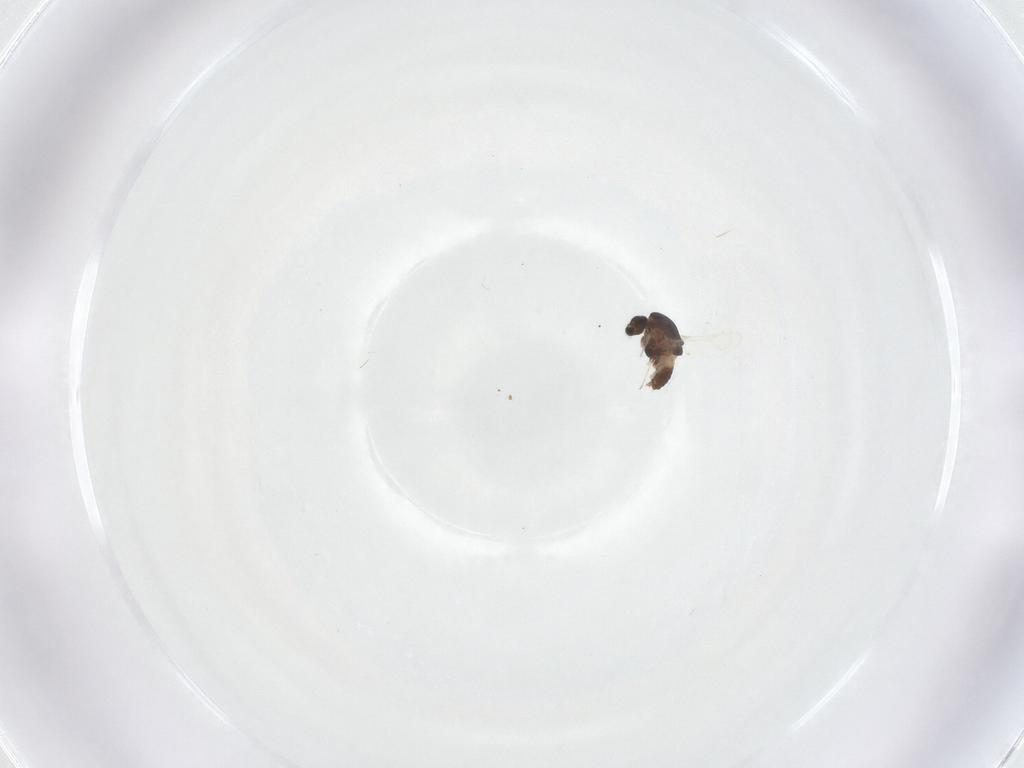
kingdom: Animalia
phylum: Arthropoda
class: Insecta
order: Diptera
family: Chironomidae
